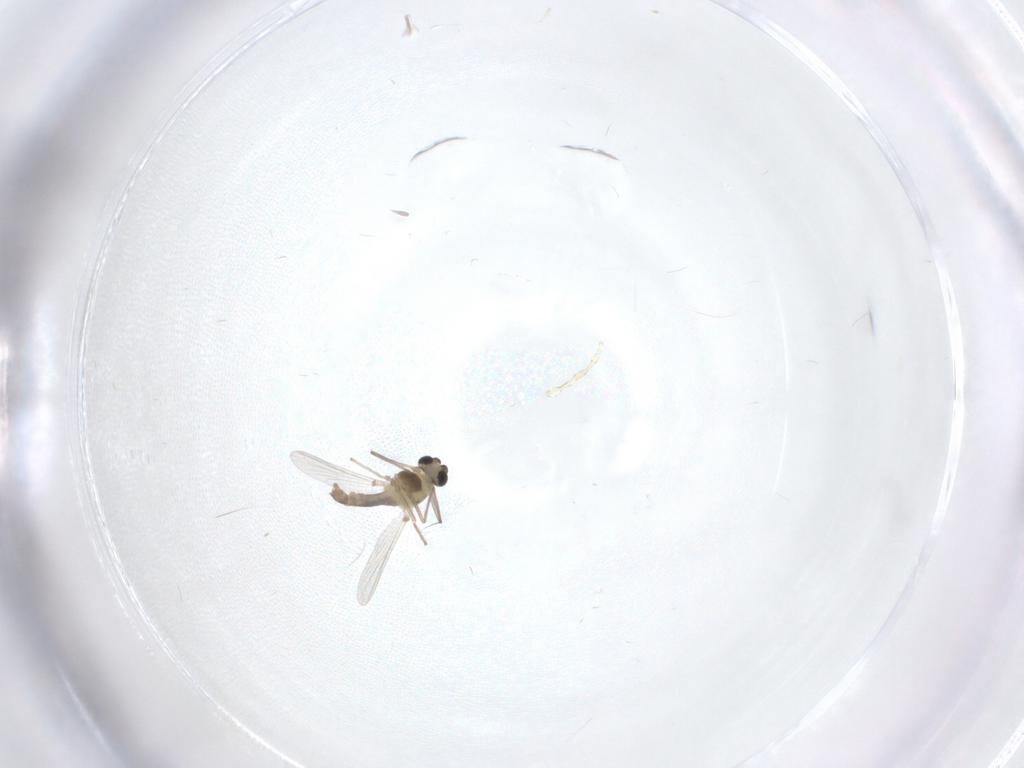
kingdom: Animalia
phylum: Arthropoda
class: Insecta
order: Diptera
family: Chironomidae
